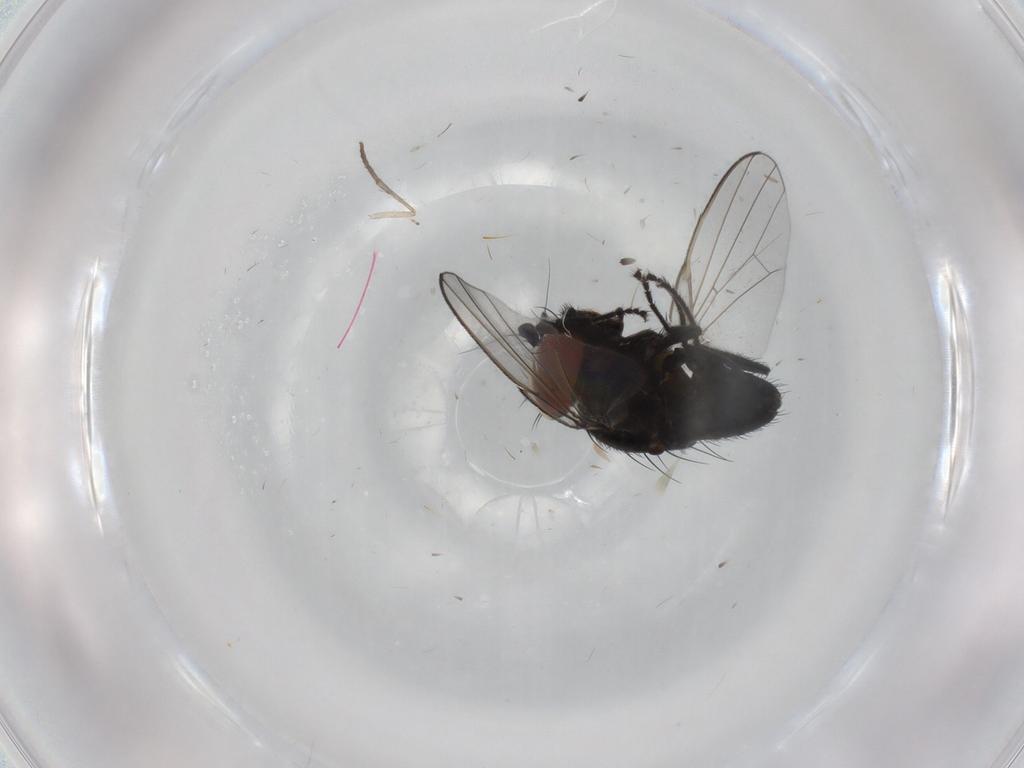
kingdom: Animalia
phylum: Arthropoda
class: Insecta
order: Diptera
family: Milichiidae
